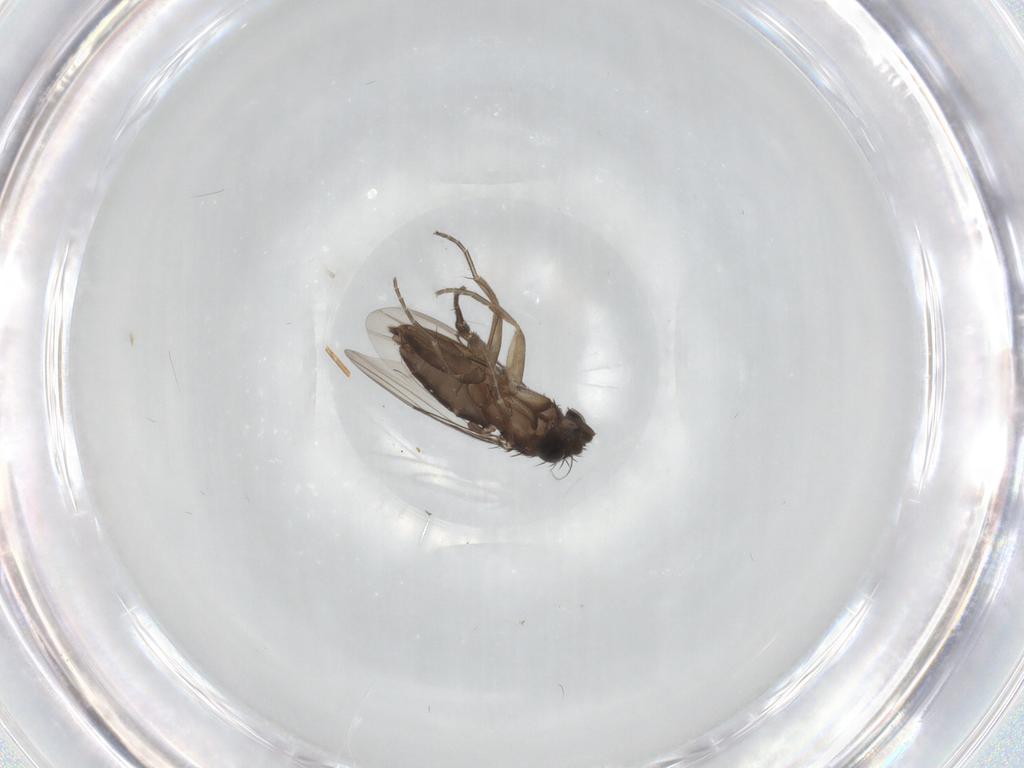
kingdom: Animalia
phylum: Arthropoda
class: Insecta
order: Diptera
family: Phoridae
